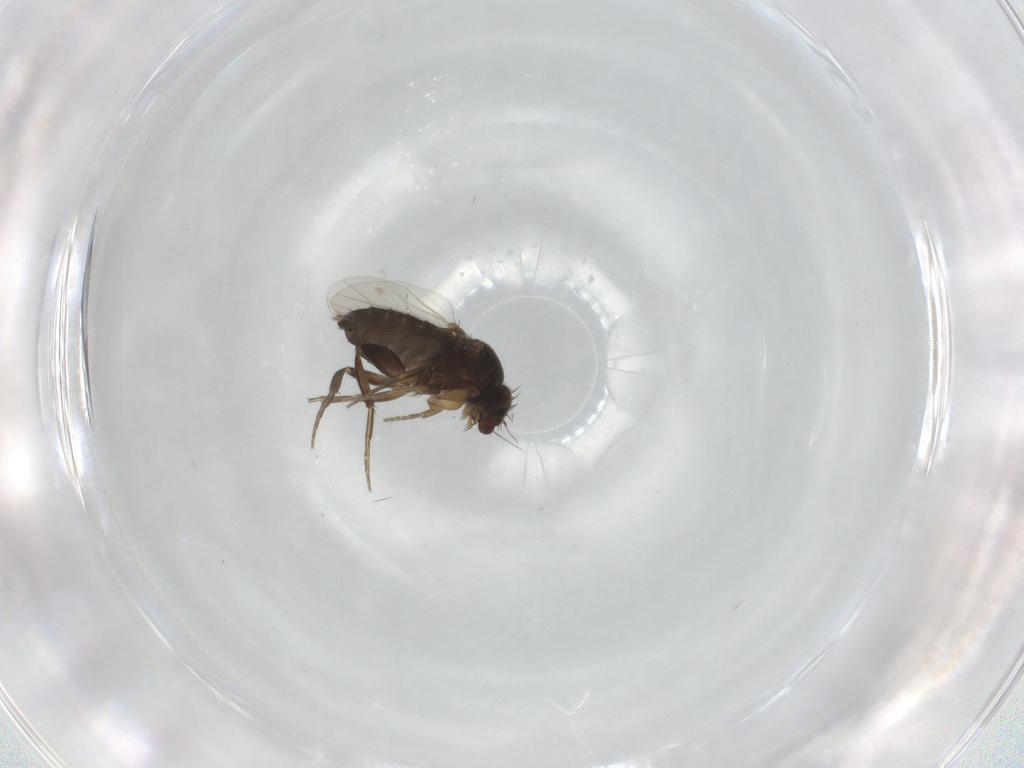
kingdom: Animalia
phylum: Arthropoda
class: Insecta
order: Diptera
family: Phoridae
